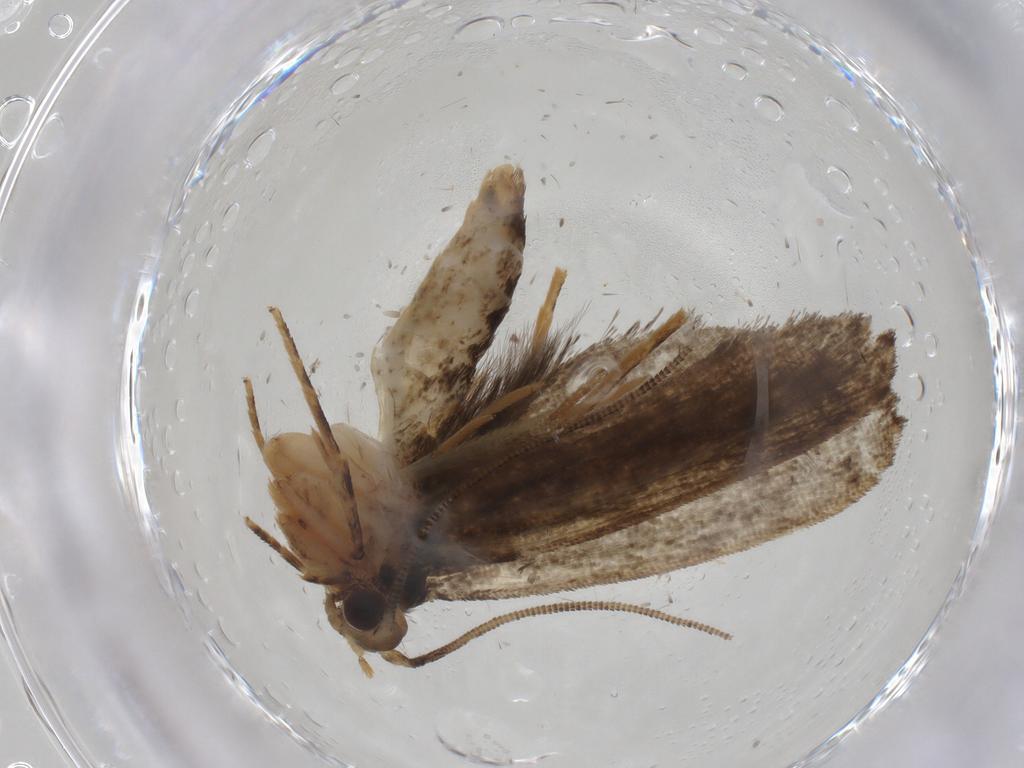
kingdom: Animalia
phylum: Arthropoda
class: Insecta
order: Lepidoptera
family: Tineidae
